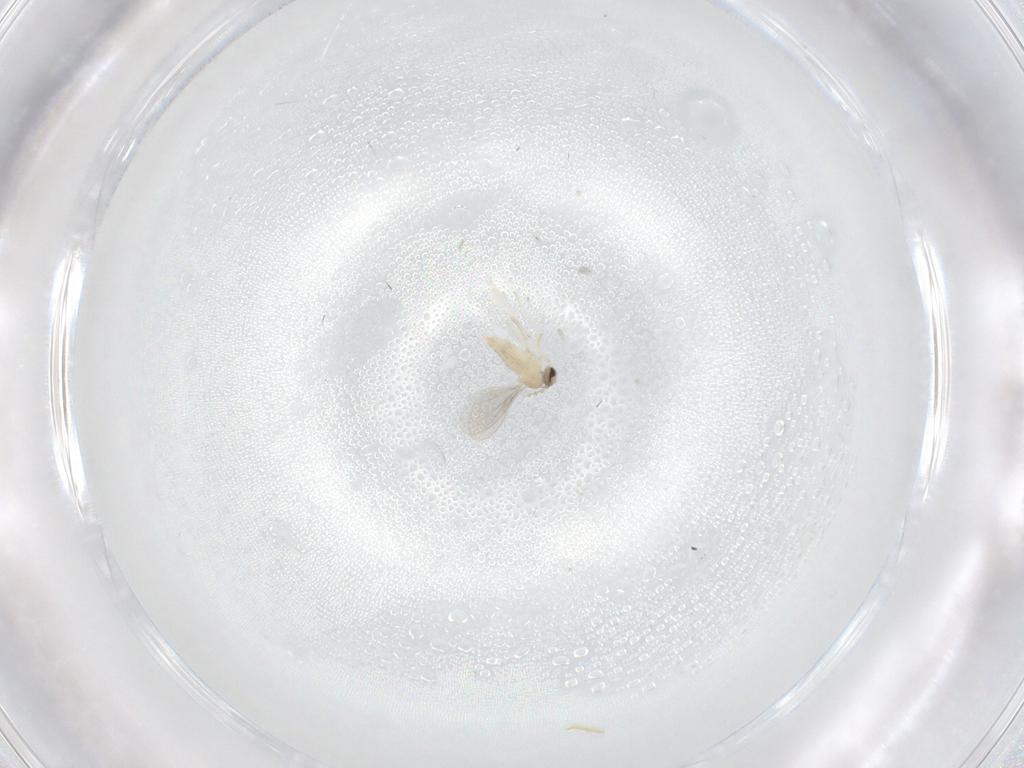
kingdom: Animalia
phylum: Arthropoda
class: Insecta
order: Diptera
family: Cecidomyiidae
